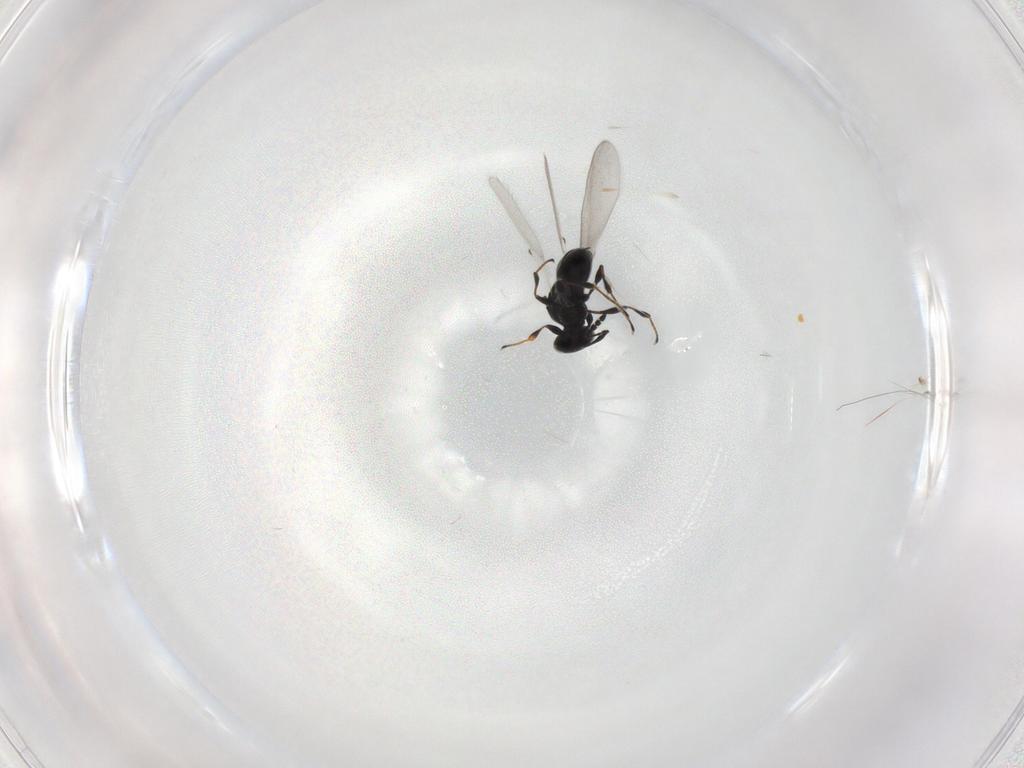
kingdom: Animalia
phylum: Arthropoda
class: Insecta
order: Hymenoptera
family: Platygastridae
